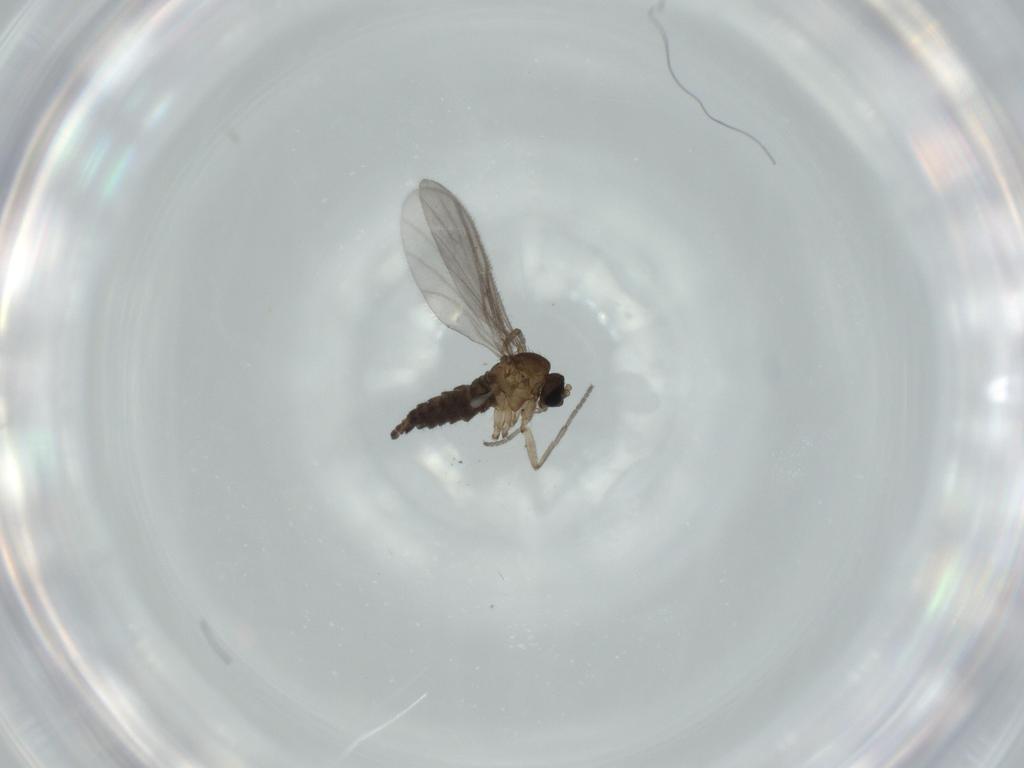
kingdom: Animalia
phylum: Arthropoda
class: Insecta
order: Diptera
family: Sciaridae
